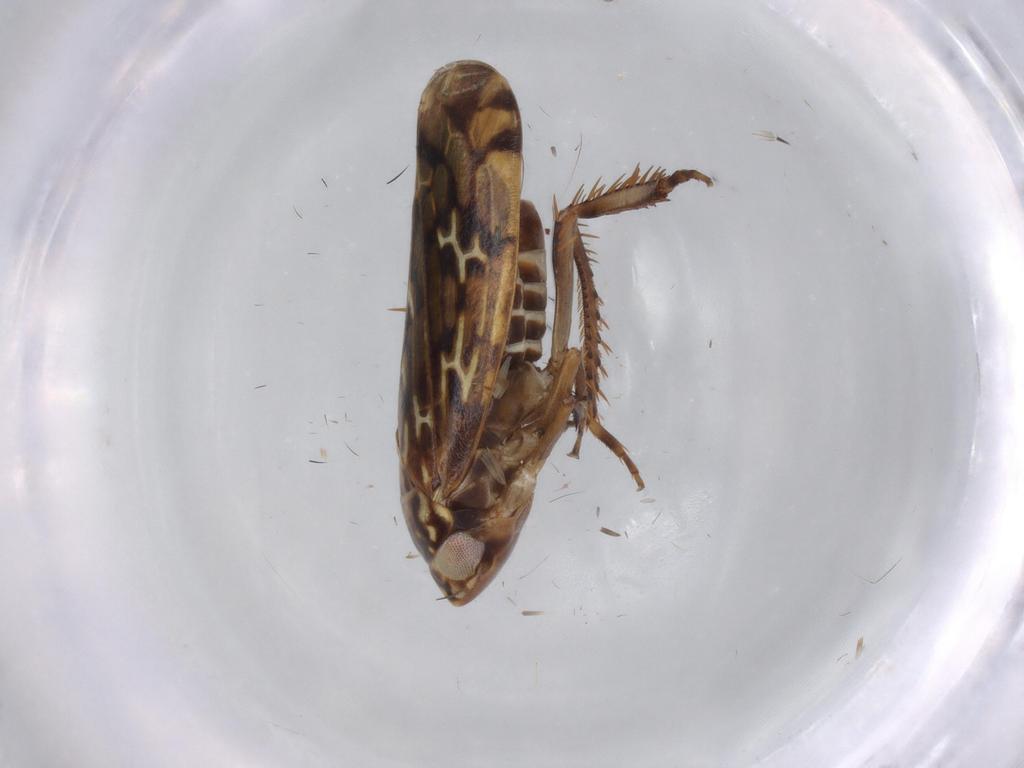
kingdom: Animalia
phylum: Arthropoda
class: Insecta
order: Hemiptera
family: Cicadellidae
